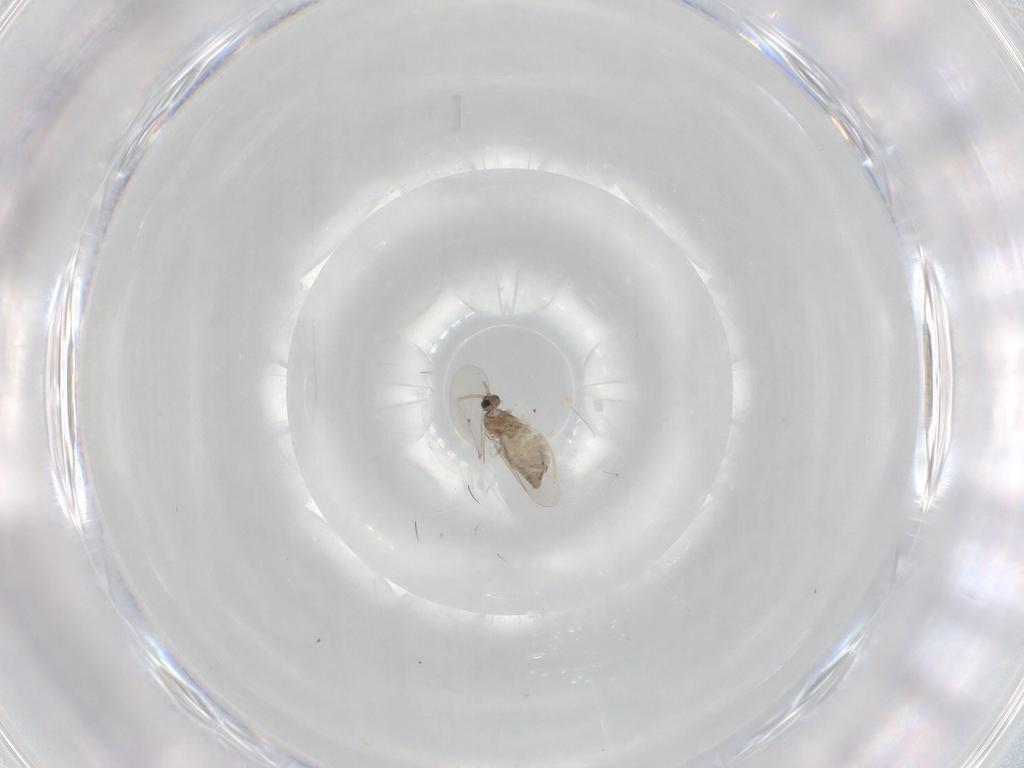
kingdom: Animalia
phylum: Arthropoda
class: Insecta
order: Diptera
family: Cecidomyiidae
